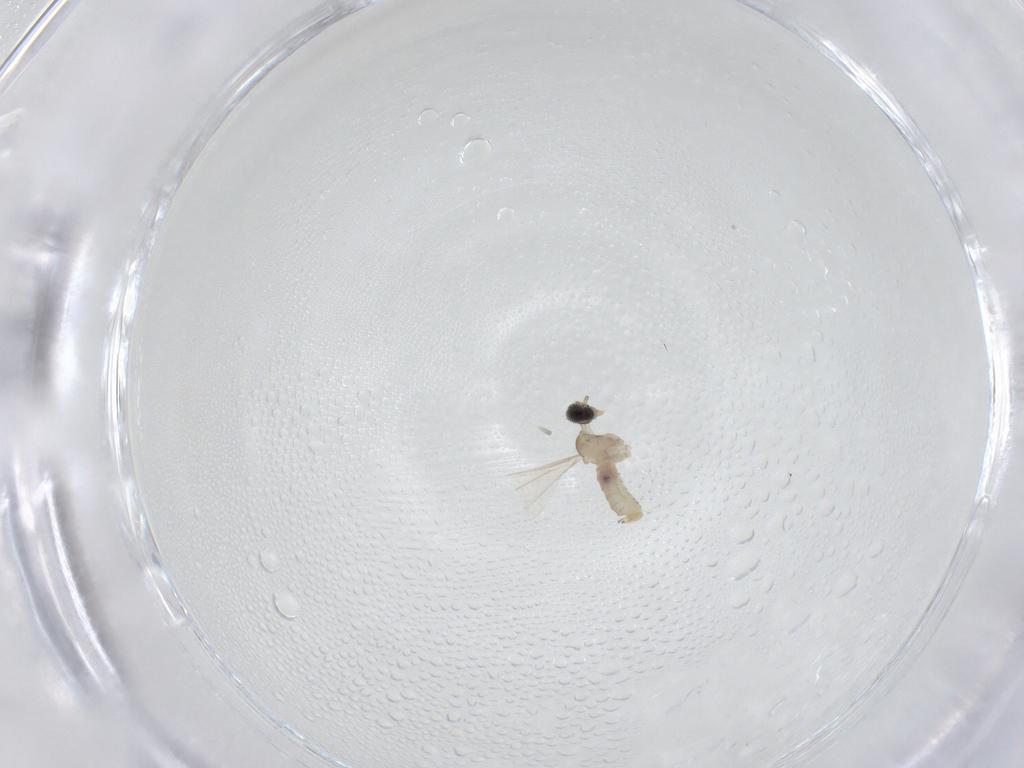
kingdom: Animalia
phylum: Arthropoda
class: Insecta
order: Diptera
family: Cecidomyiidae
